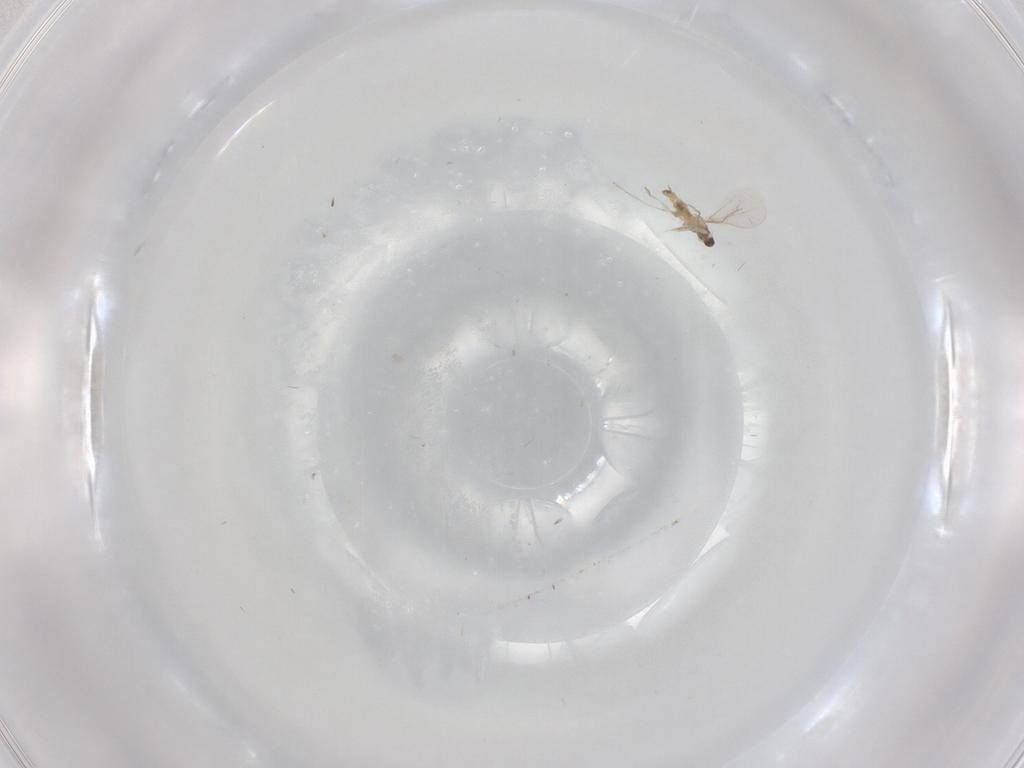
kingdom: Animalia
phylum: Arthropoda
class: Insecta
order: Diptera
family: Cecidomyiidae
